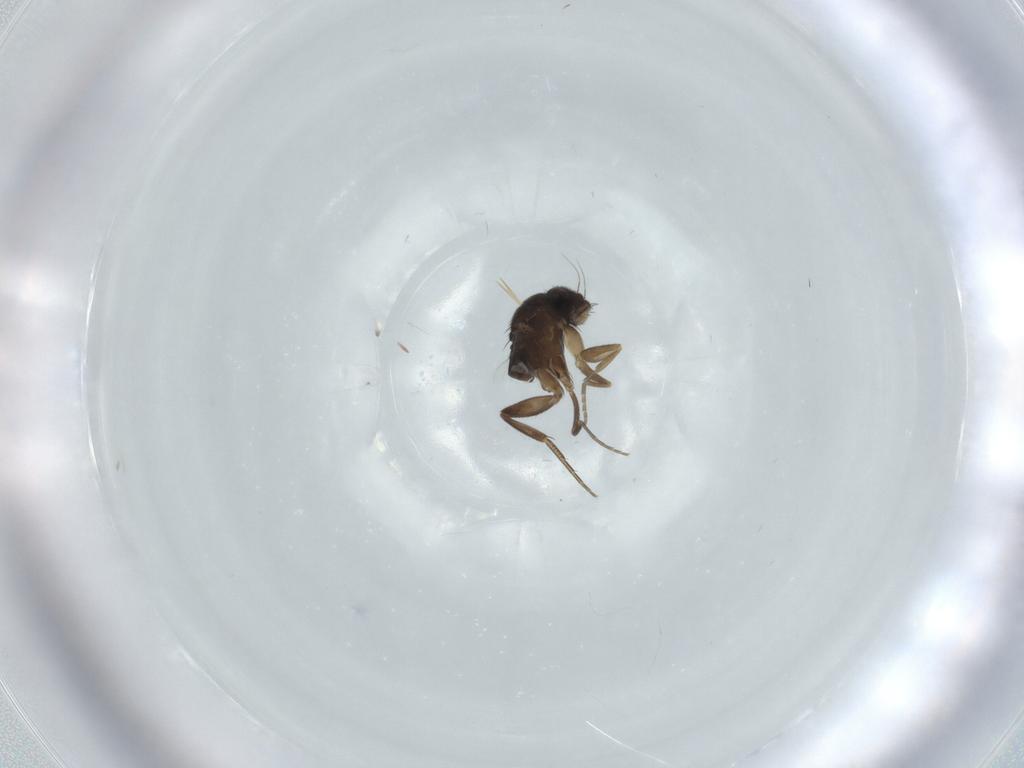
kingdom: Animalia
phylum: Arthropoda
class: Insecta
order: Diptera
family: Phoridae
